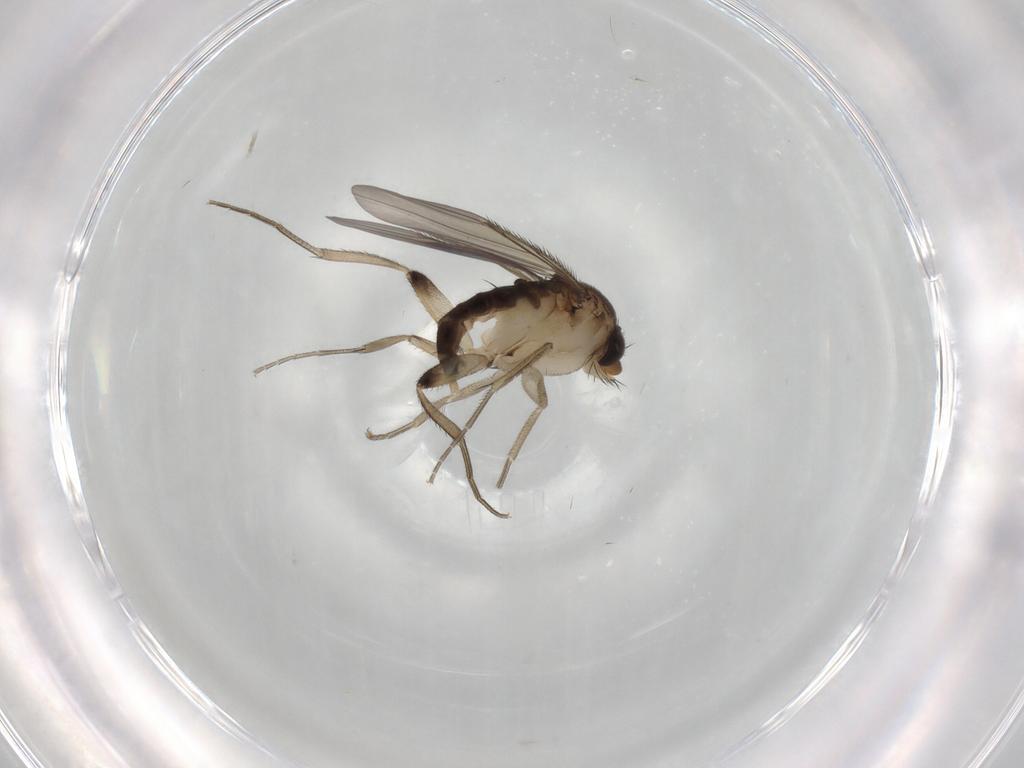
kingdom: Animalia
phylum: Arthropoda
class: Insecta
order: Diptera
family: Phoridae
